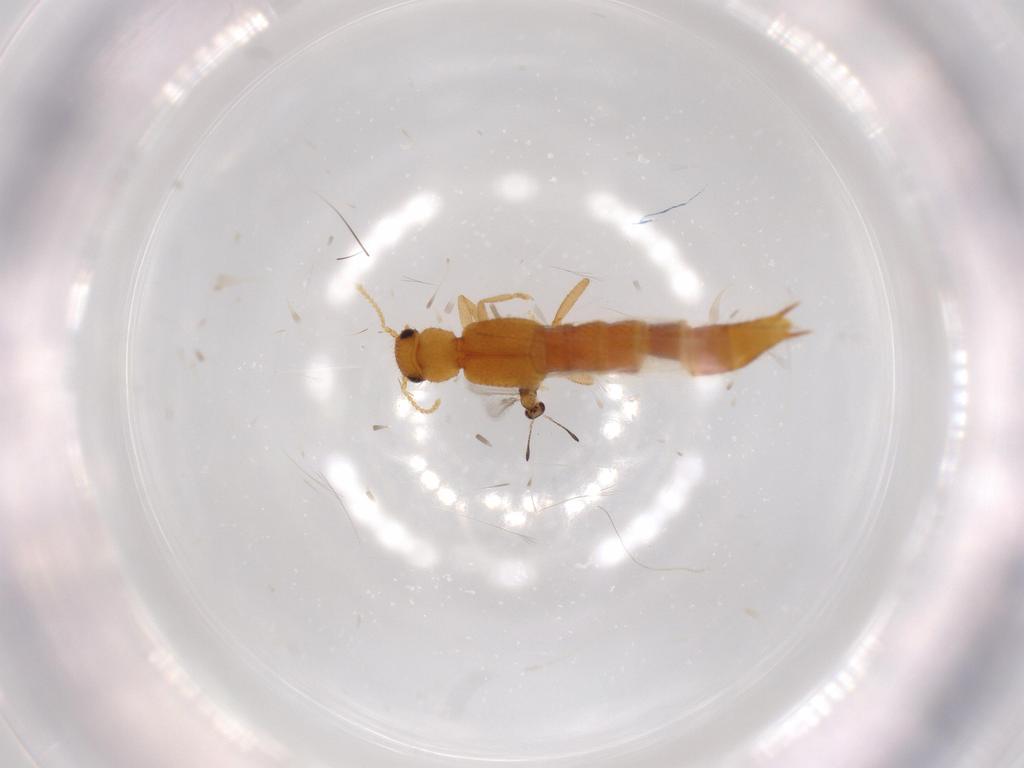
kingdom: Animalia
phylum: Arthropoda
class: Insecta
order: Coleoptera
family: Staphylinidae
